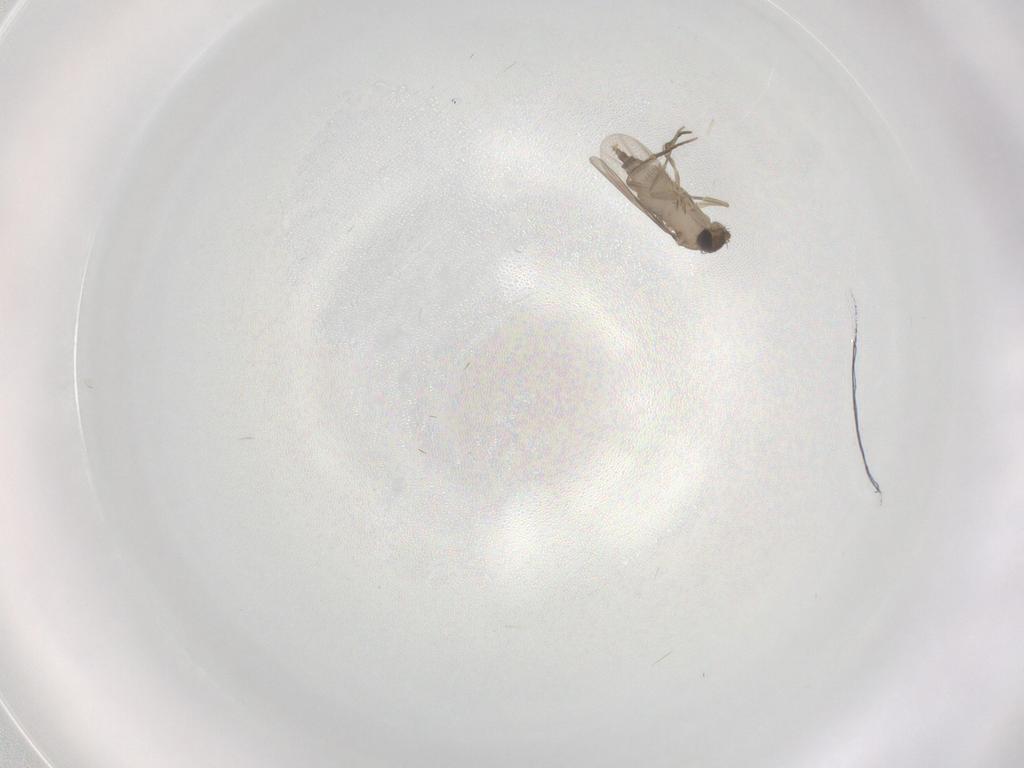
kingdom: Animalia
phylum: Arthropoda
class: Insecta
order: Diptera
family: Phoridae
